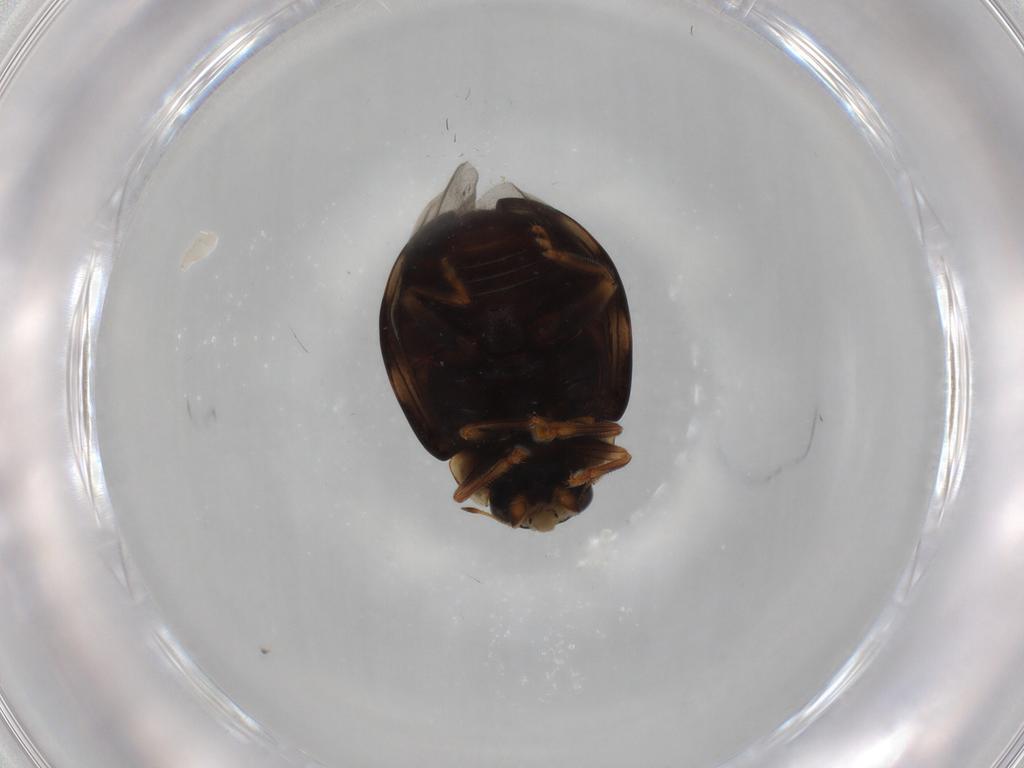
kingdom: Animalia
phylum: Arthropoda
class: Insecta
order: Coleoptera
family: Coccinellidae
